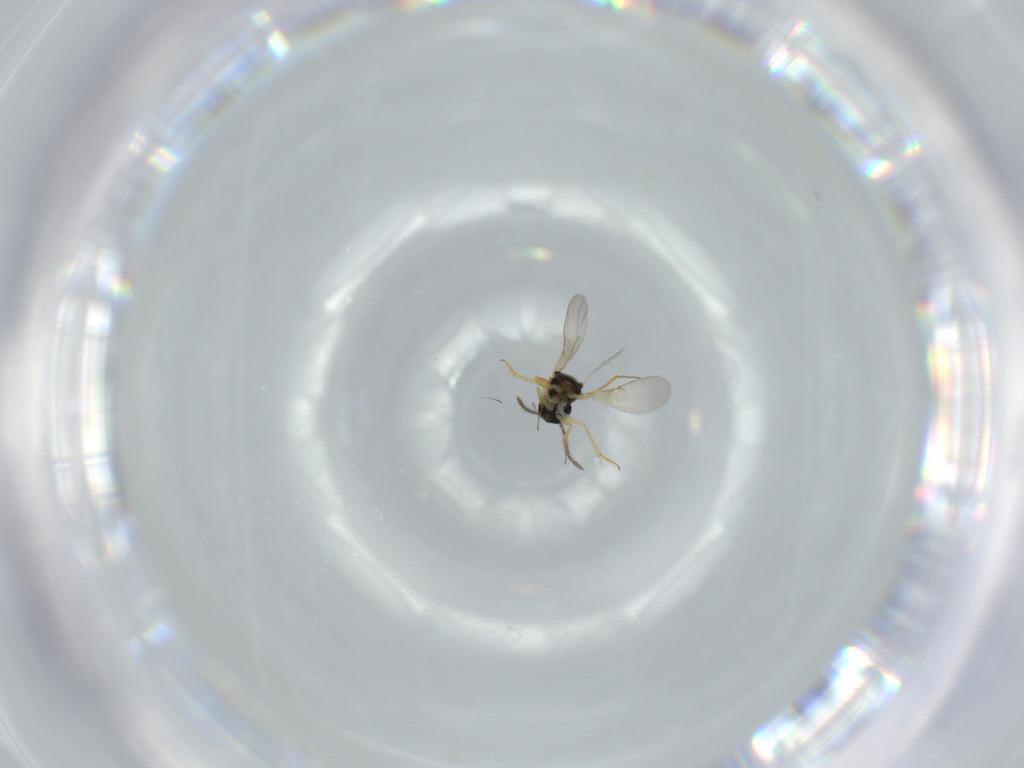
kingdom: Animalia
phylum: Arthropoda
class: Insecta
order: Hymenoptera
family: Encyrtidae
